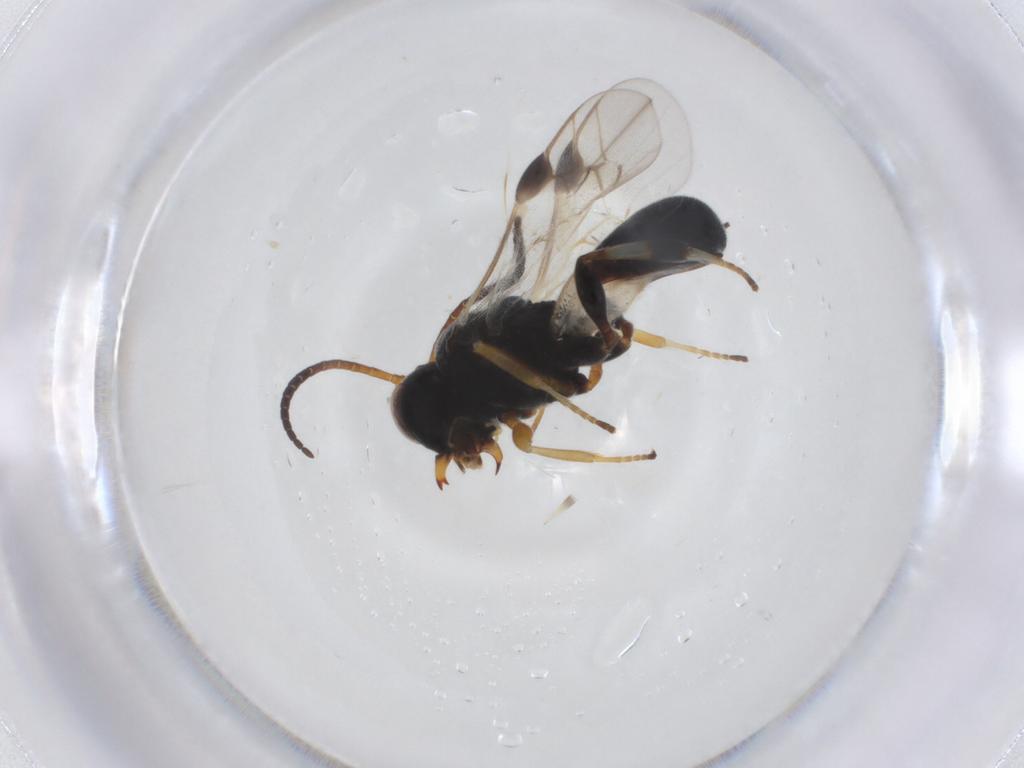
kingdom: Animalia
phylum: Arthropoda
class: Insecta
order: Hymenoptera
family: Braconidae
